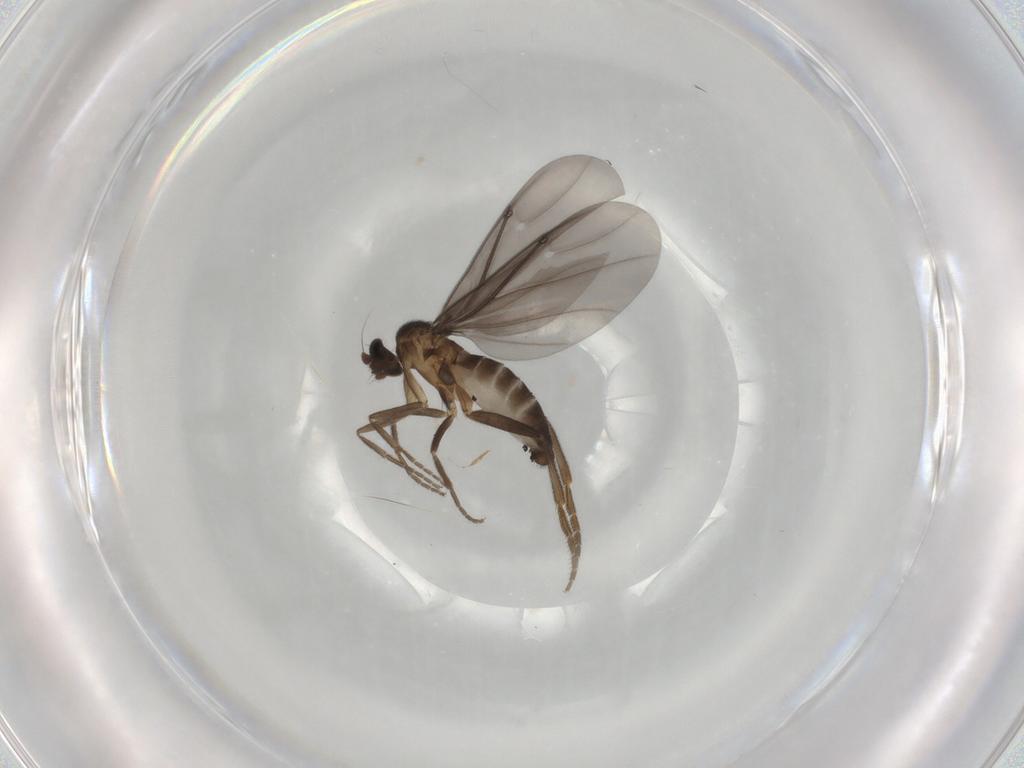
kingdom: Animalia
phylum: Arthropoda
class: Insecta
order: Diptera
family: Phoridae
